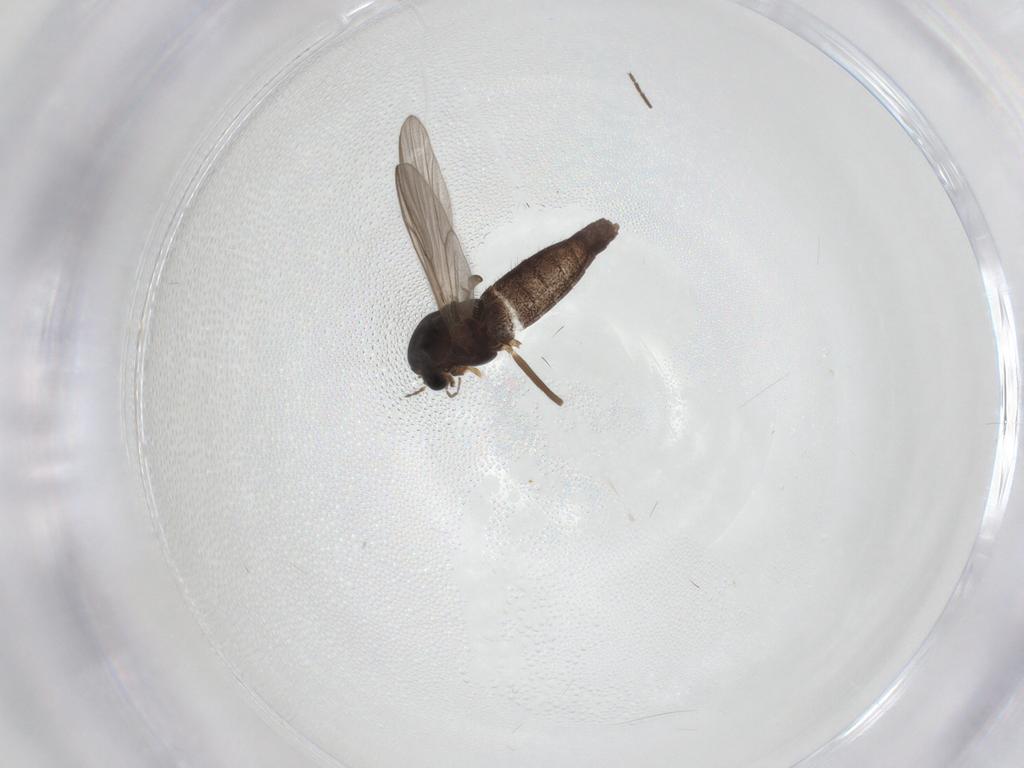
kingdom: Animalia
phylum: Arthropoda
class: Insecta
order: Diptera
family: Chironomidae
